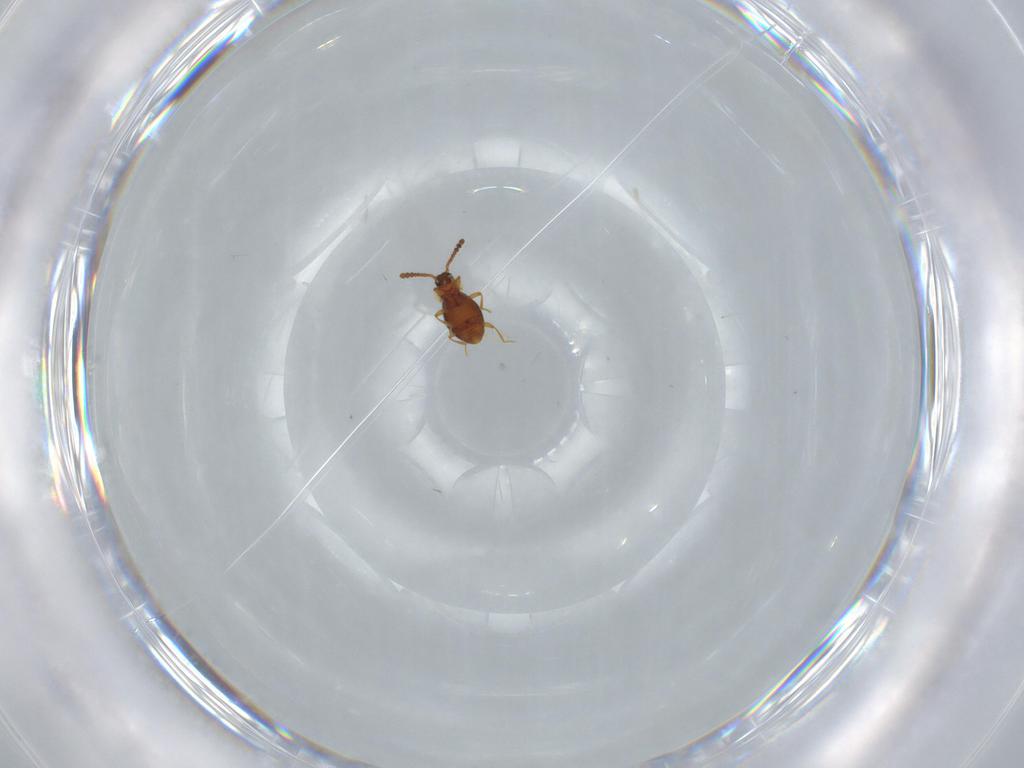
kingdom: Animalia
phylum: Arthropoda
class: Insecta
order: Coleoptera
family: Staphylinidae
